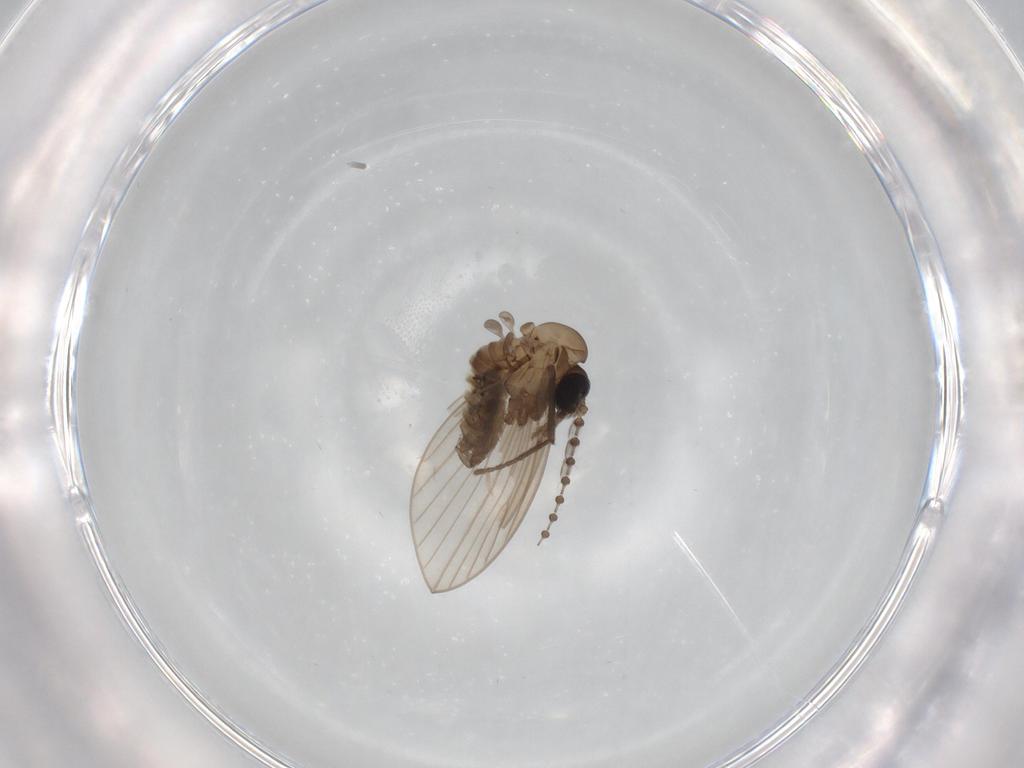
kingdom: Animalia
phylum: Arthropoda
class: Insecta
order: Diptera
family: Psychodidae
